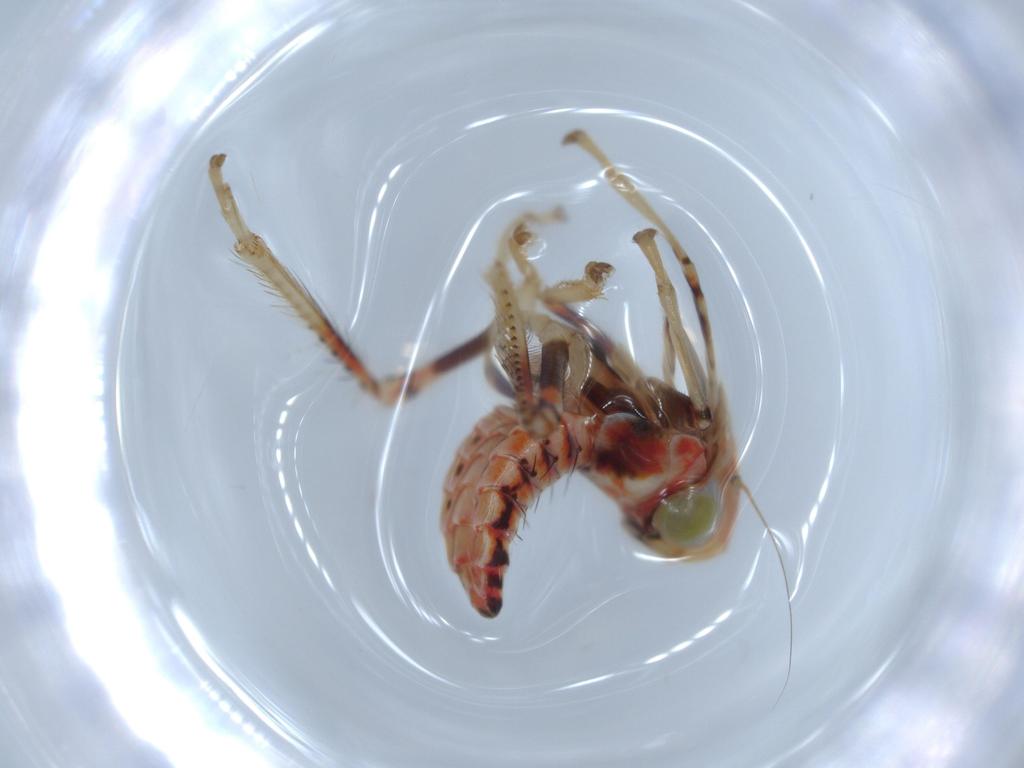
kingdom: Animalia
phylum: Arthropoda
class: Insecta
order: Hemiptera
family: Cicadellidae
